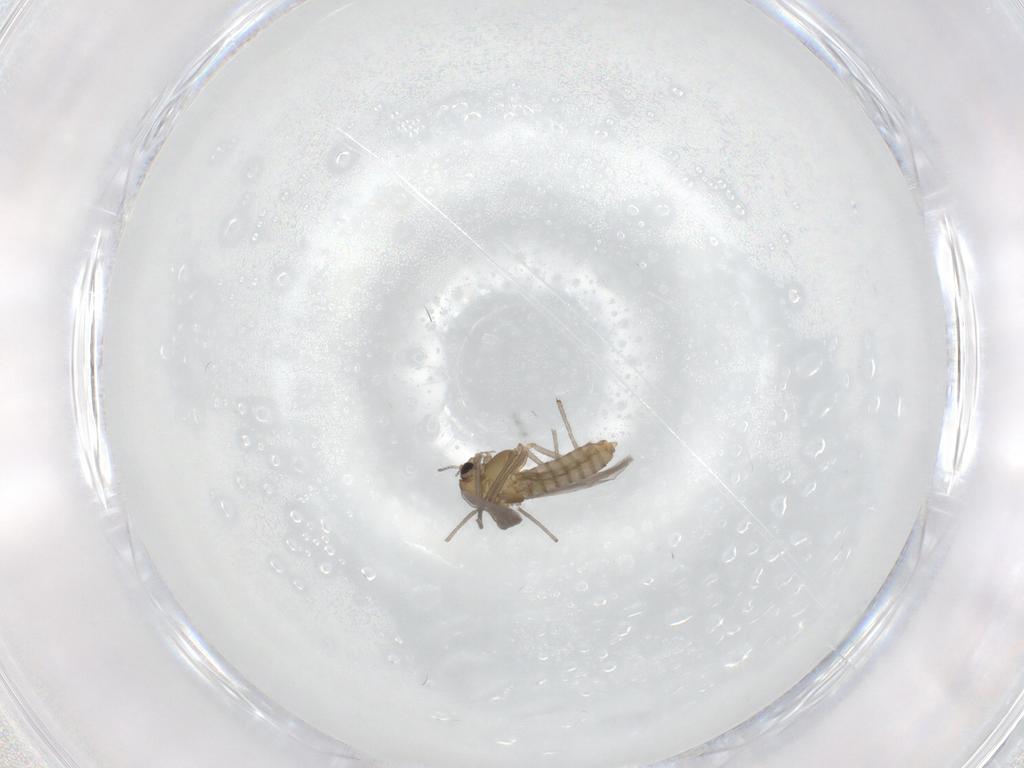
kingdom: Animalia
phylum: Arthropoda
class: Insecta
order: Diptera
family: Chironomidae
